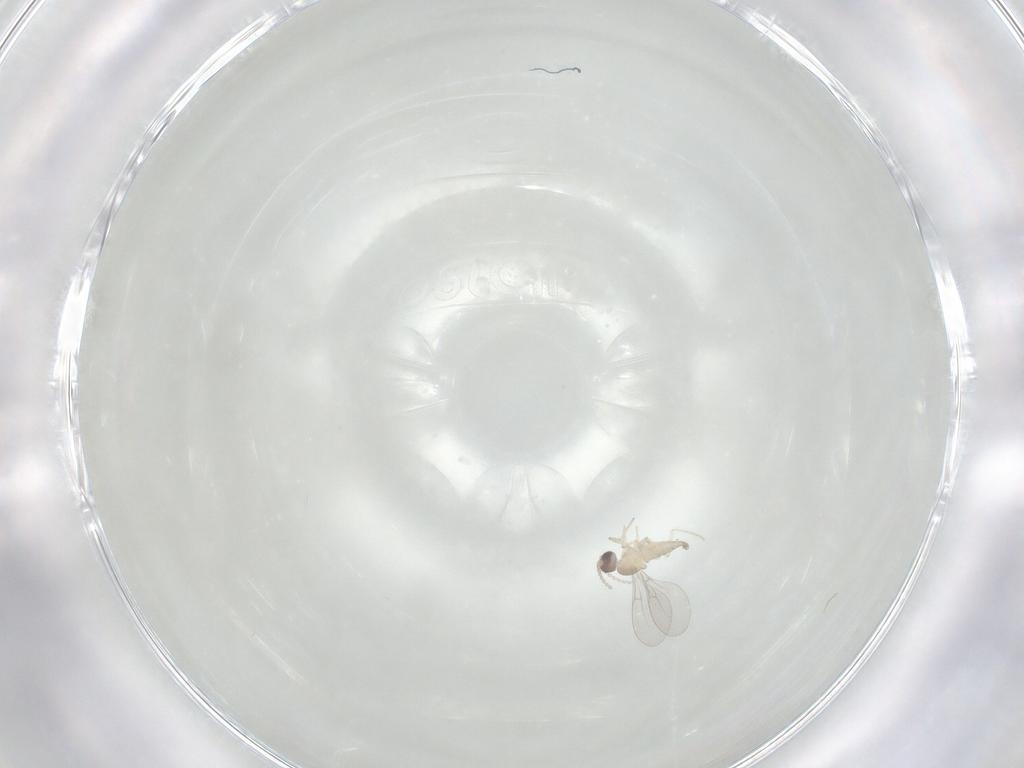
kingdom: Animalia
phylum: Arthropoda
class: Insecta
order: Diptera
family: Cecidomyiidae
